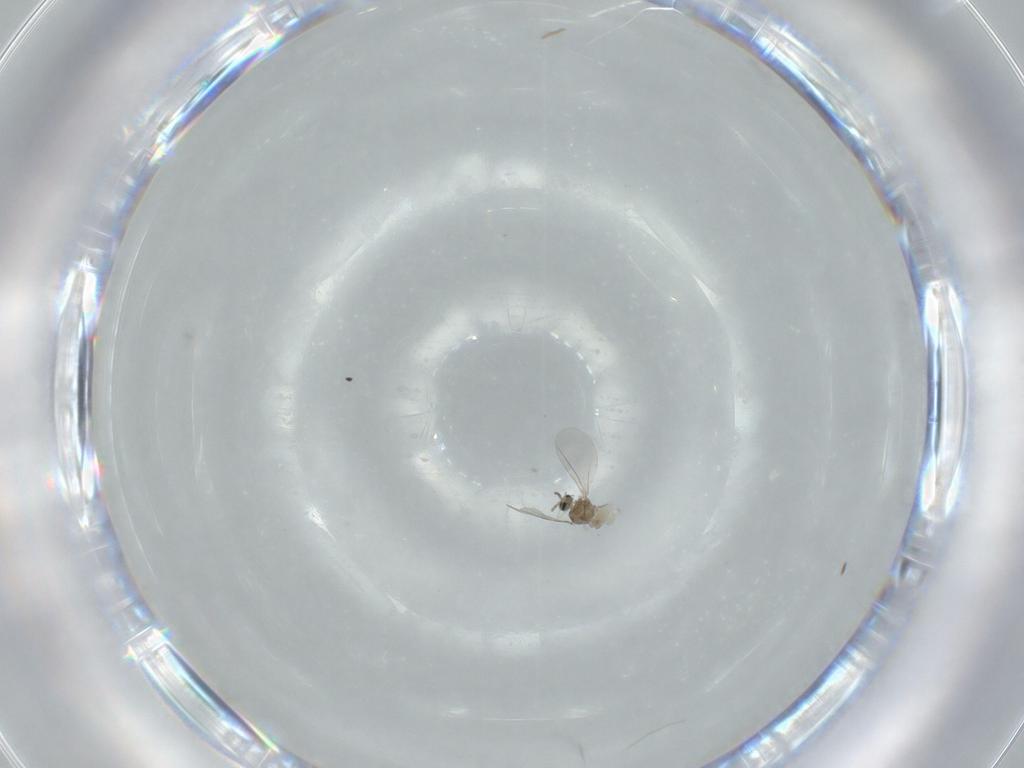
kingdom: Animalia
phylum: Arthropoda
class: Insecta
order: Diptera
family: Cecidomyiidae
